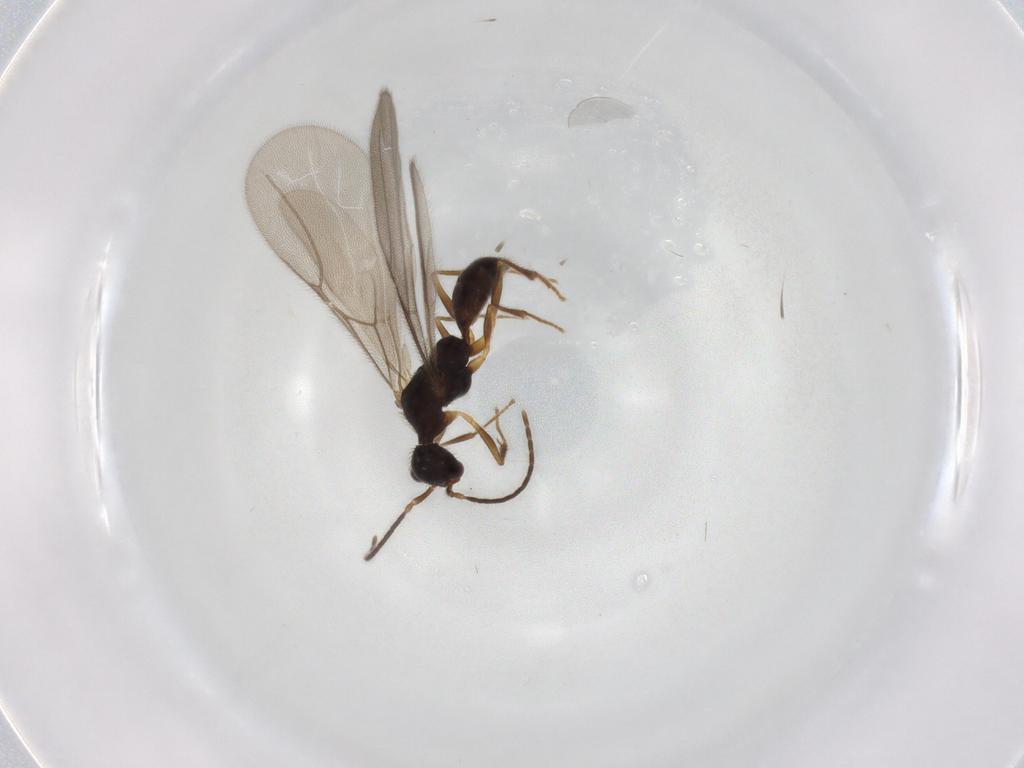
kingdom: Animalia
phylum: Arthropoda
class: Insecta
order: Hymenoptera
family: Bethylidae
